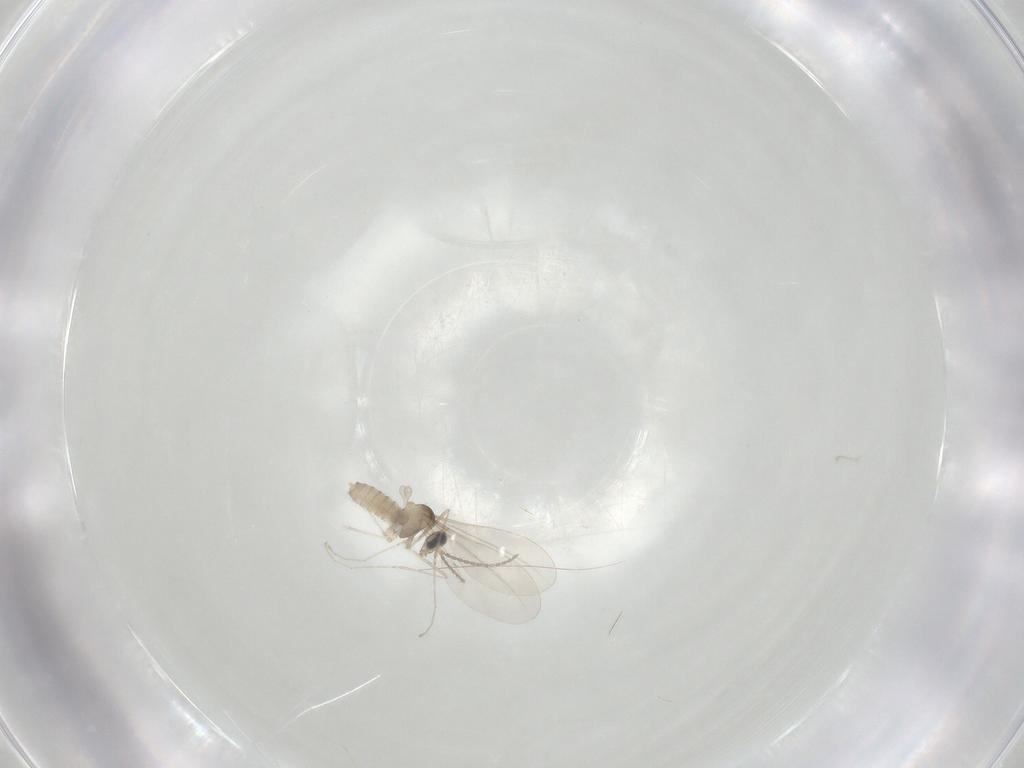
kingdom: Animalia
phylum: Arthropoda
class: Insecta
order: Diptera
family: Cecidomyiidae
